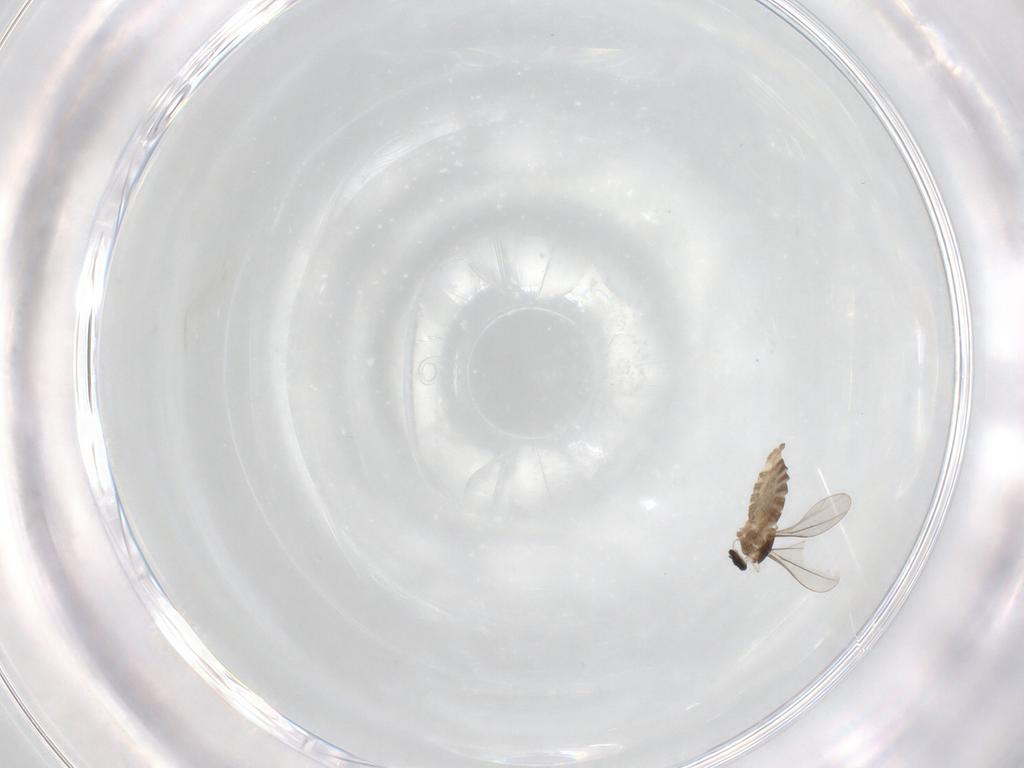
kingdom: Animalia
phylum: Arthropoda
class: Insecta
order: Diptera
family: Cecidomyiidae
